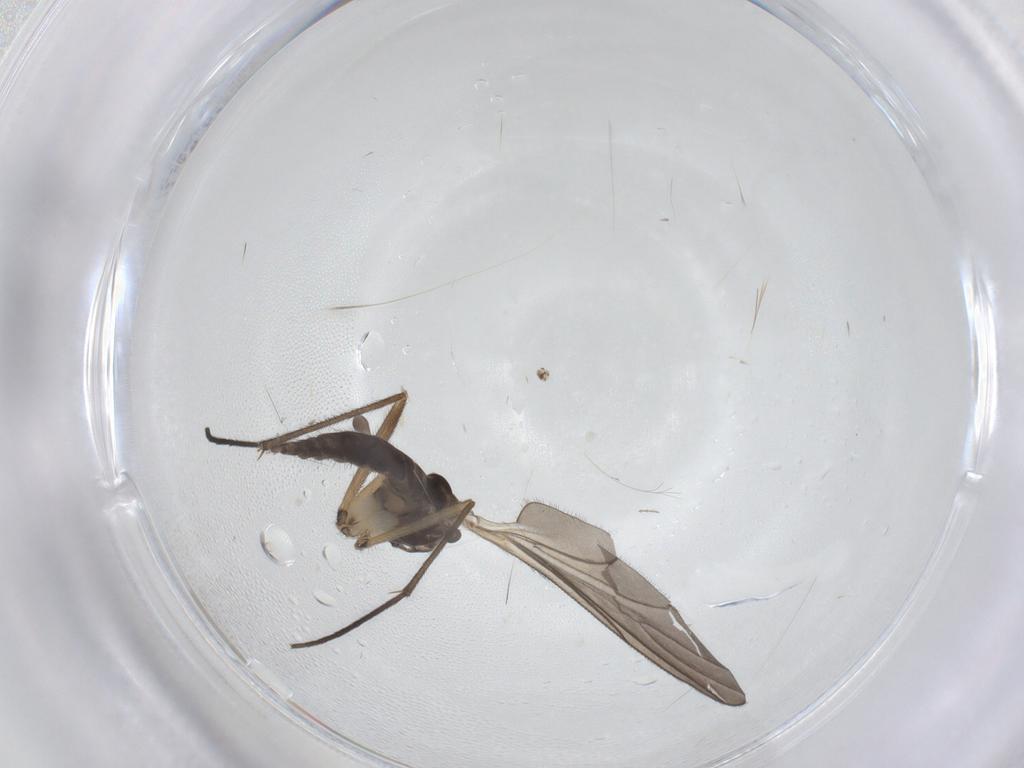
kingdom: Animalia
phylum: Arthropoda
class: Insecta
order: Diptera
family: Sciaridae
